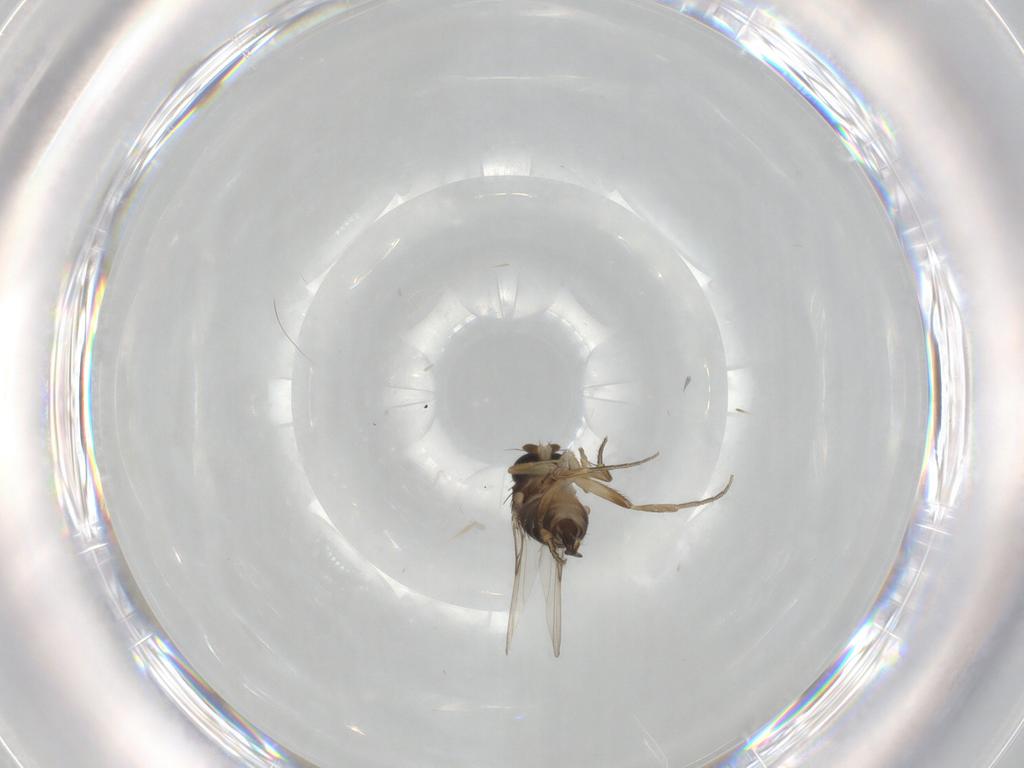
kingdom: Animalia
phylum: Arthropoda
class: Insecta
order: Diptera
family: Phoridae
